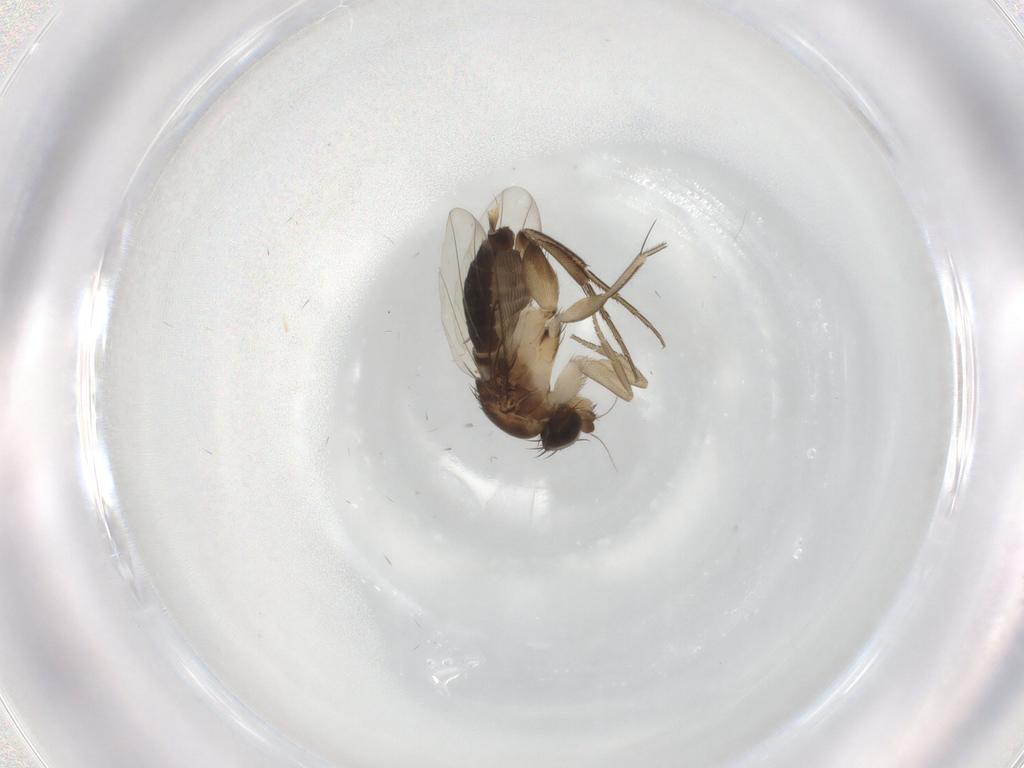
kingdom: Animalia
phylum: Arthropoda
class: Insecta
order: Diptera
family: Phoridae
